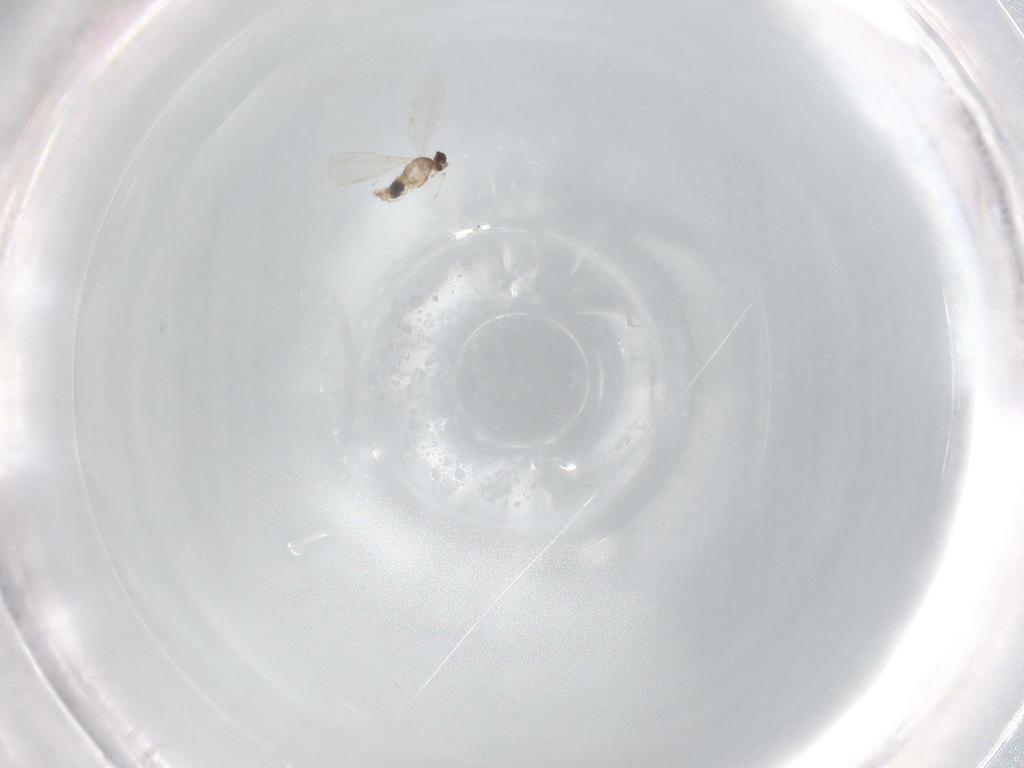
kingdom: Animalia
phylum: Arthropoda
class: Insecta
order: Diptera
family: Cecidomyiidae
